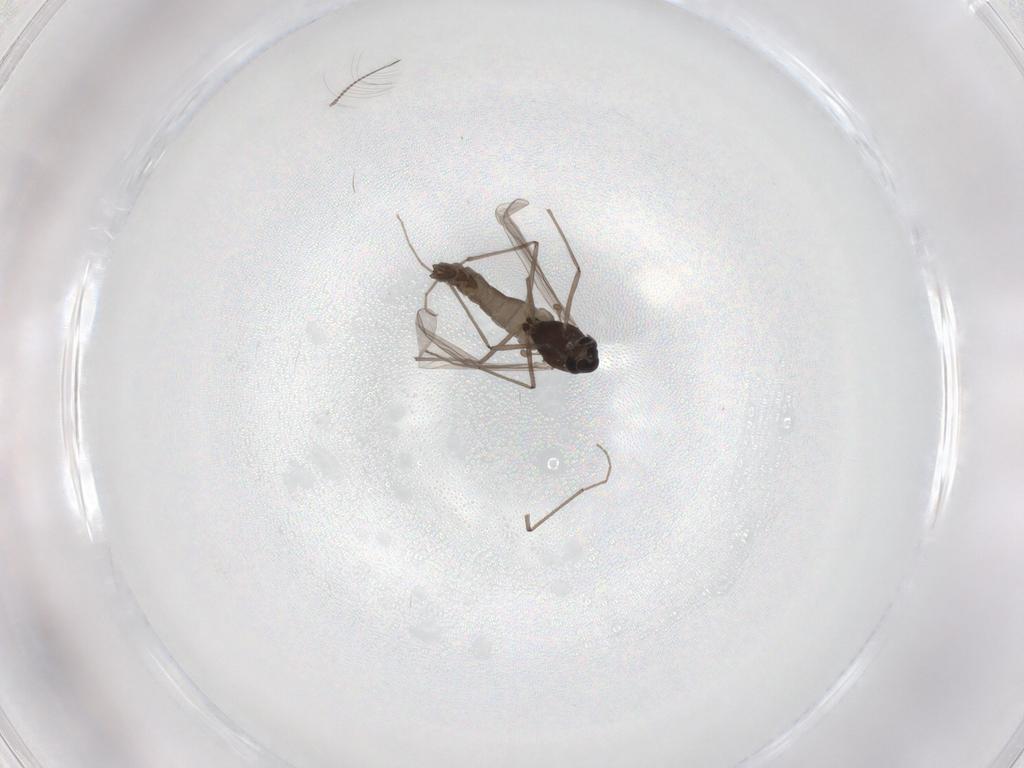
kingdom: Animalia
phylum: Arthropoda
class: Insecta
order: Diptera
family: Chironomidae
